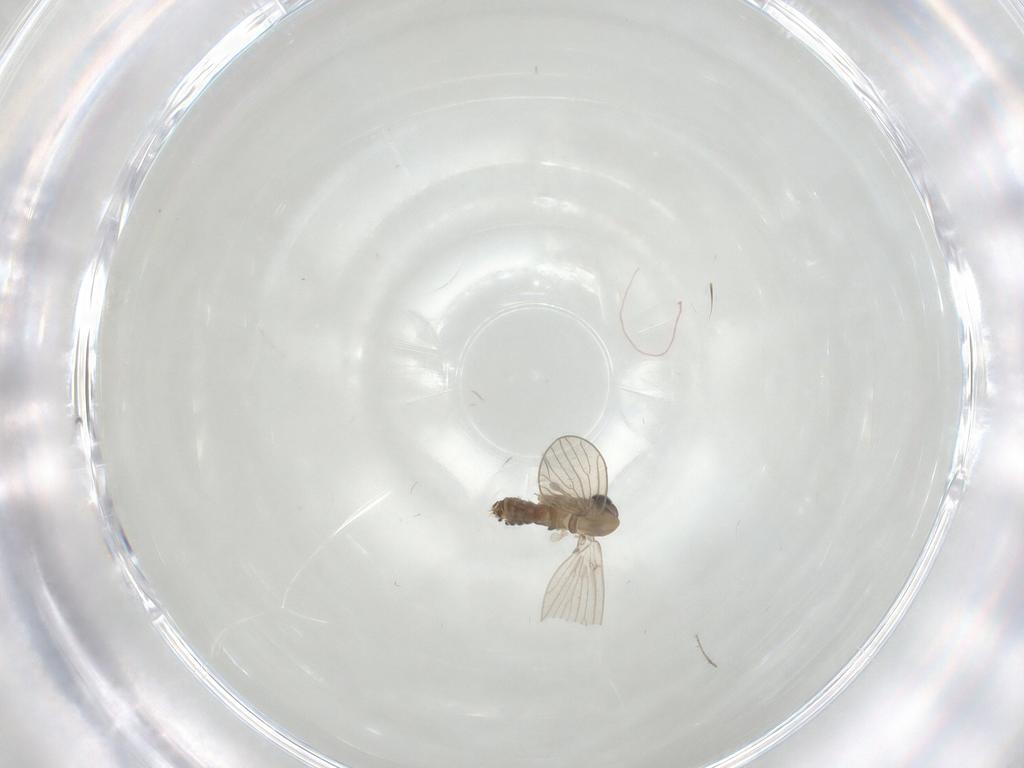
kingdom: Animalia
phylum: Arthropoda
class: Insecta
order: Diptera
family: Psychodidae
